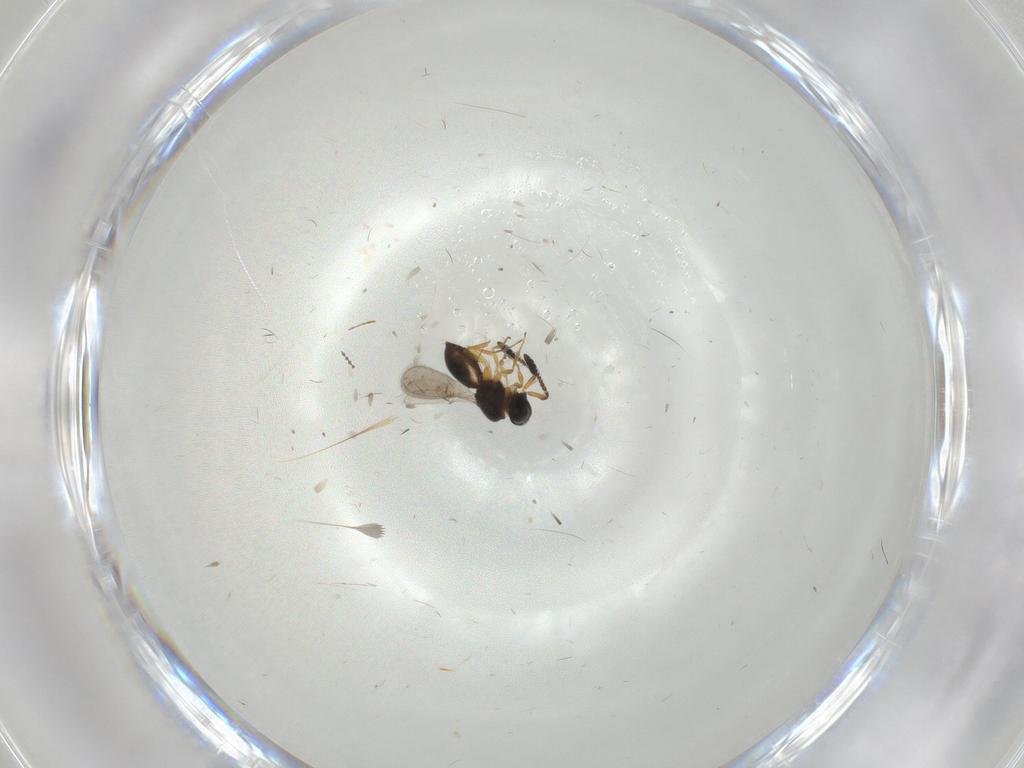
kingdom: Animalia
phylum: Arthropoda
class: Insecta
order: Hymenoptera
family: Scelionidae
